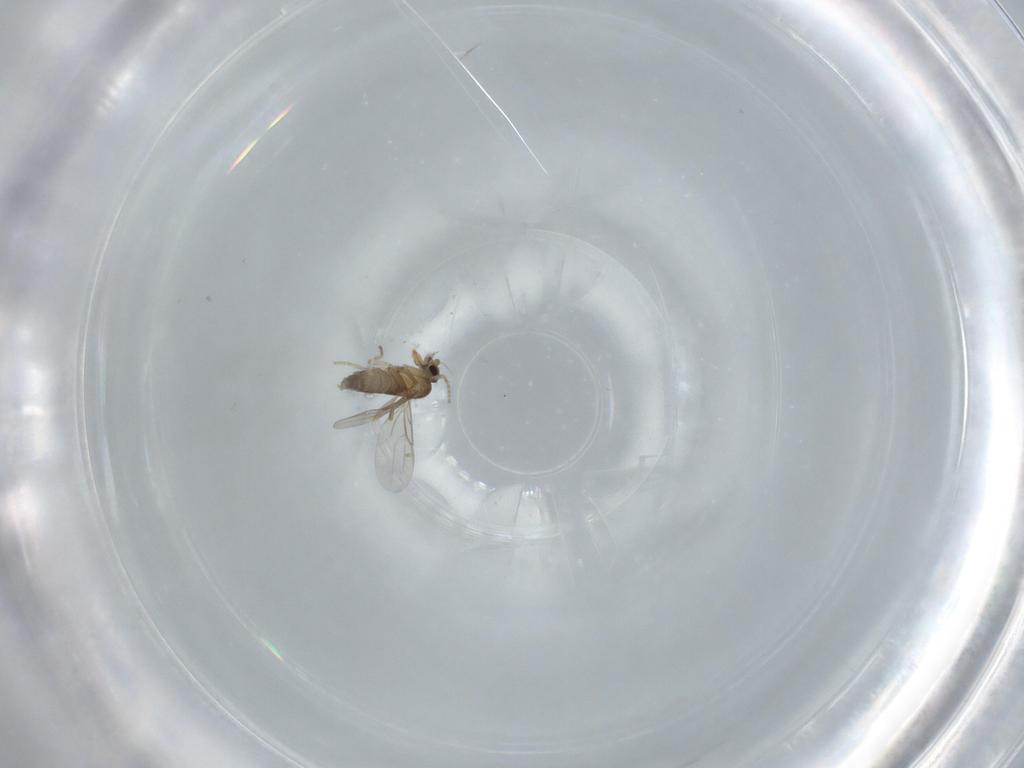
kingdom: Animalia
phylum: Arthropoda
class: Insecta
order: Diptera
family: Phoridae
